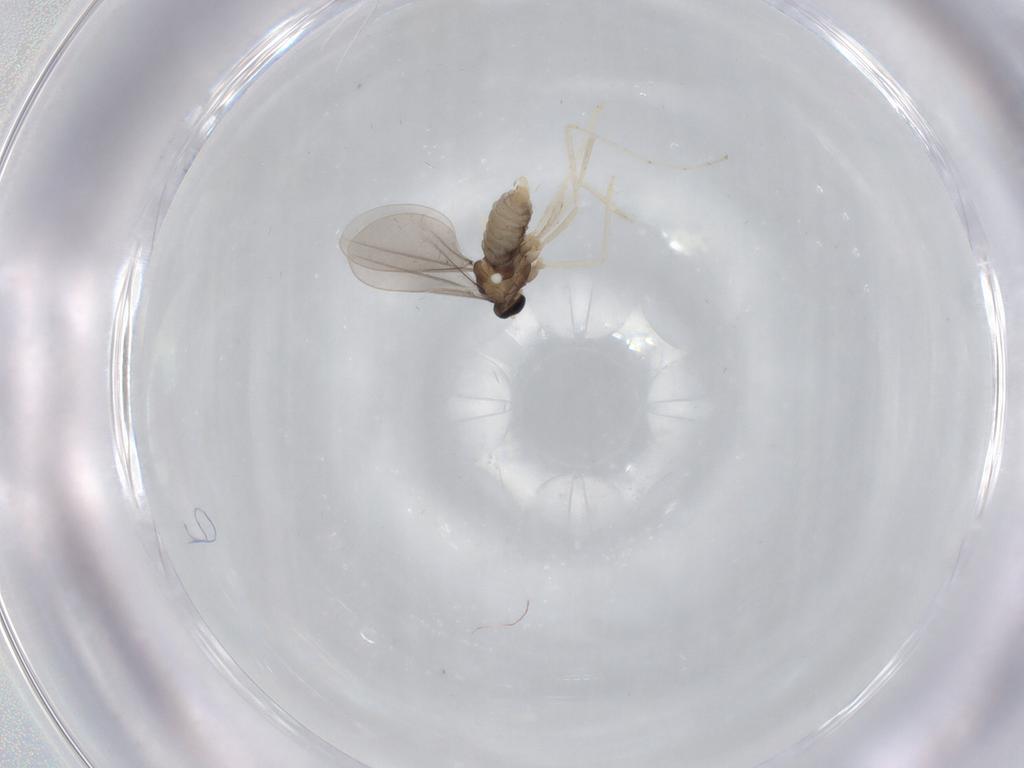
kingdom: Animalia
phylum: Arthropoda
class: Insecta
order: Diptera
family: Cecidomyiidae
